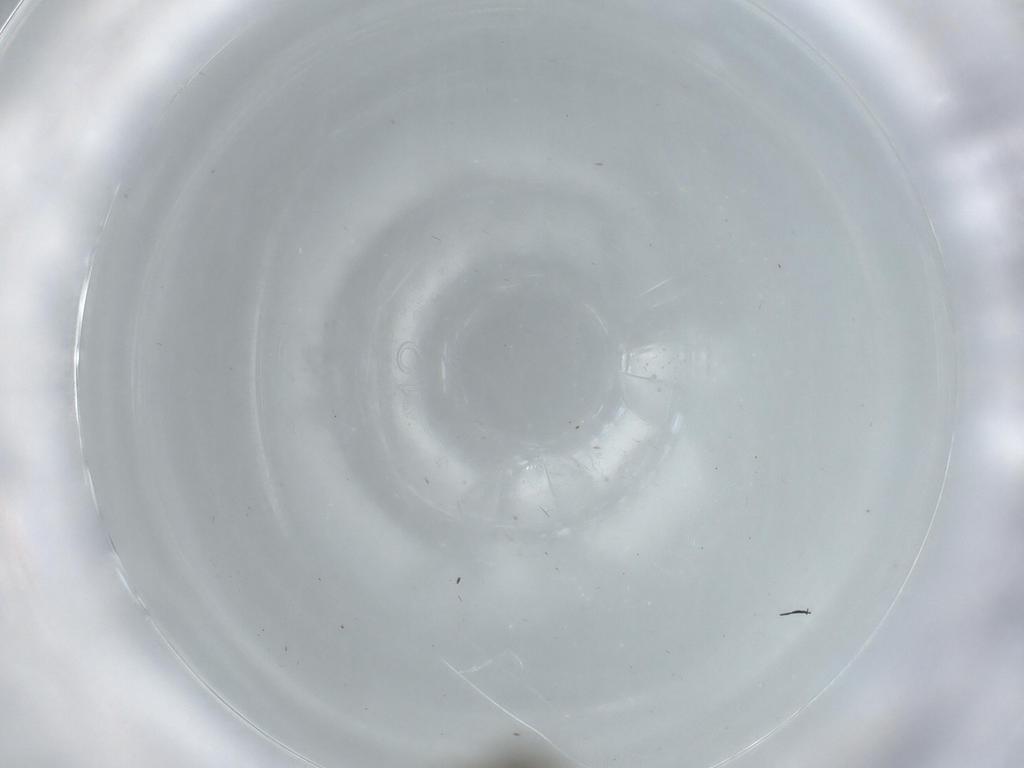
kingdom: Animalia
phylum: Arthropoda
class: Insecta
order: Diptera
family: Psychodidae
